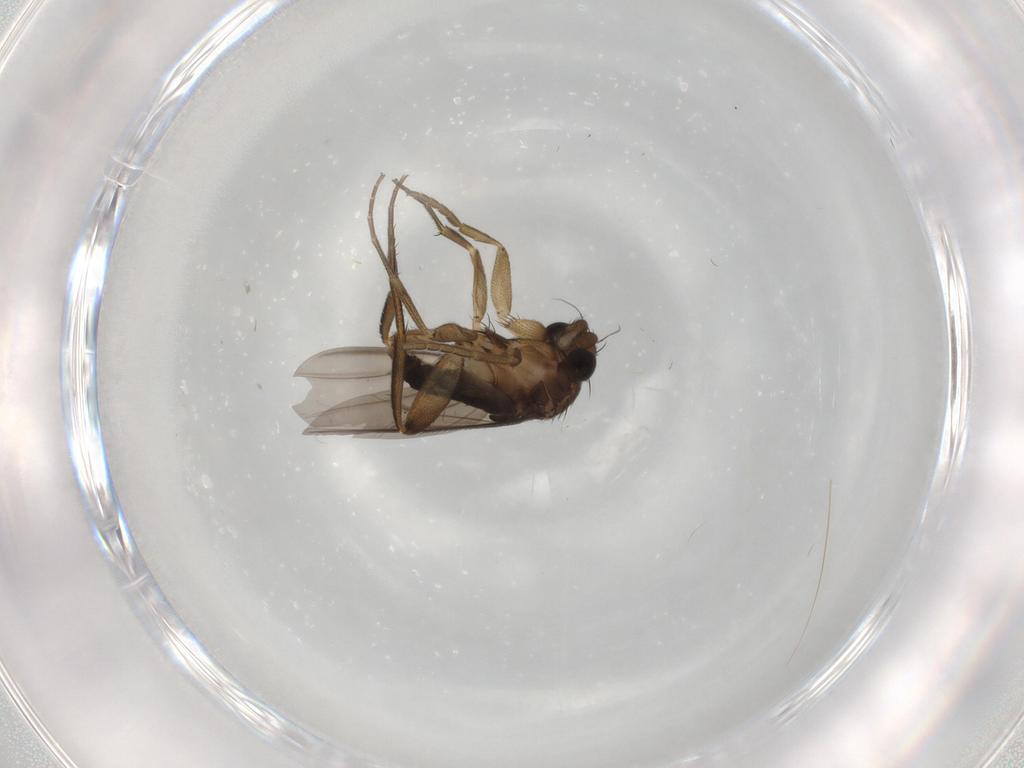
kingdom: Animalia
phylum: Arthropoda
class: Insecta
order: Diptera
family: Phoridae
